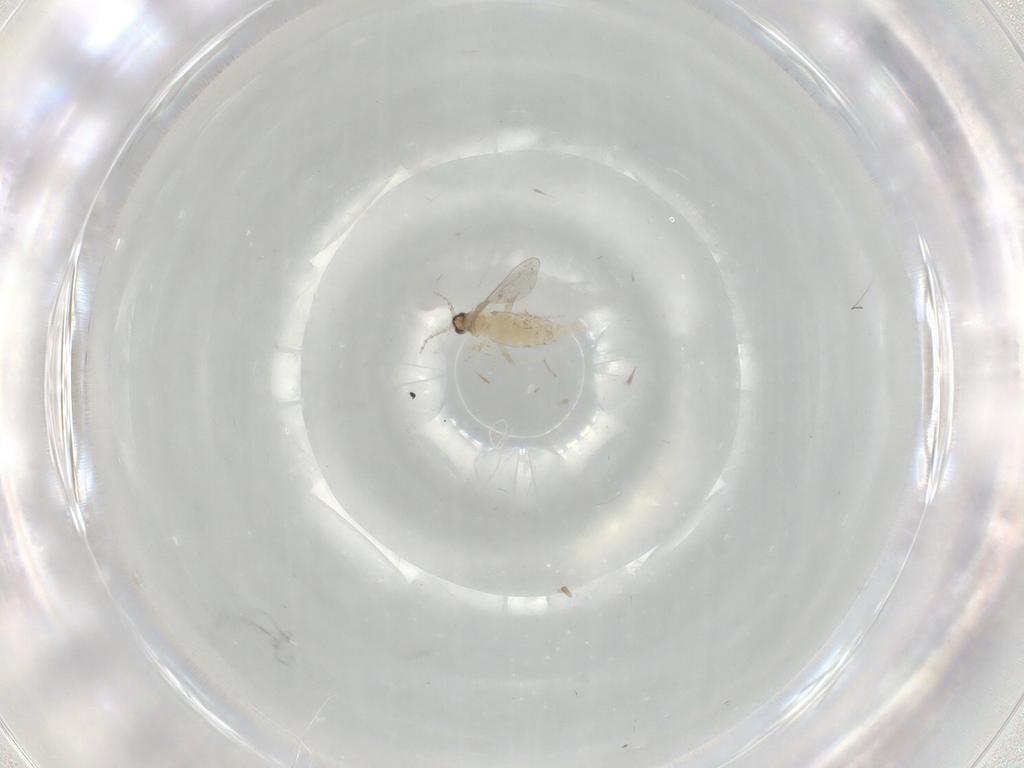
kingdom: Animalia
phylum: Arthropoda
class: Insecta
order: Diptera
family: Cecidomyiidae
